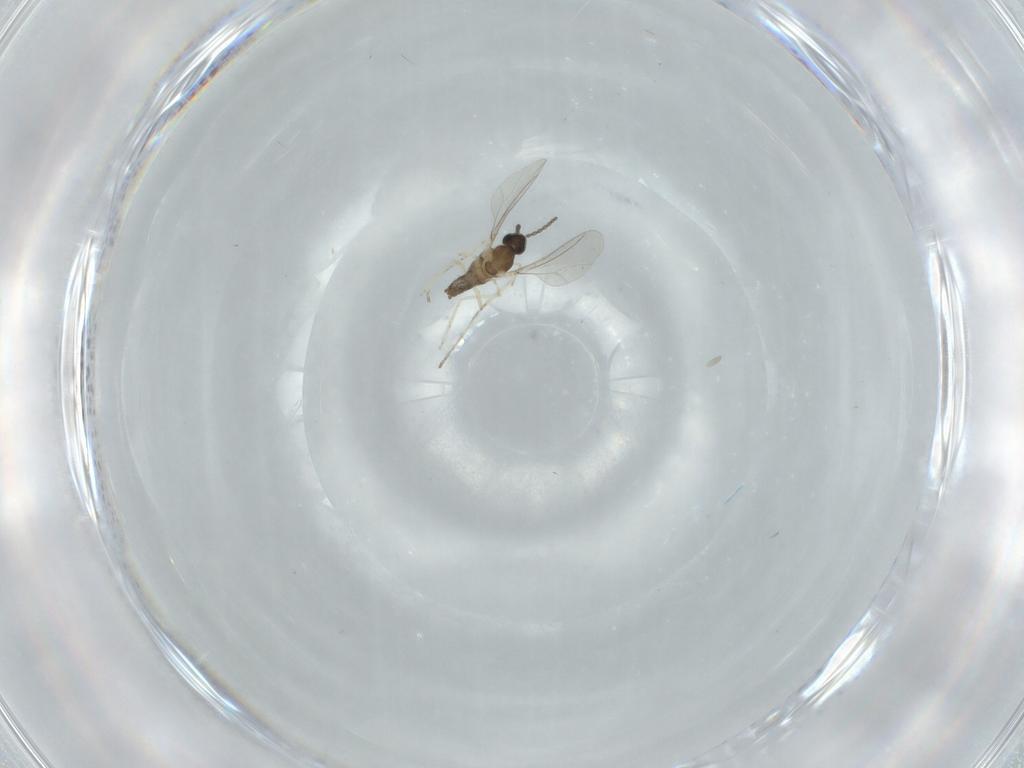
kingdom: Animalia
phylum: Arthropoda
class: Insecta
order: Diptera
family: Cecidomyiidae
